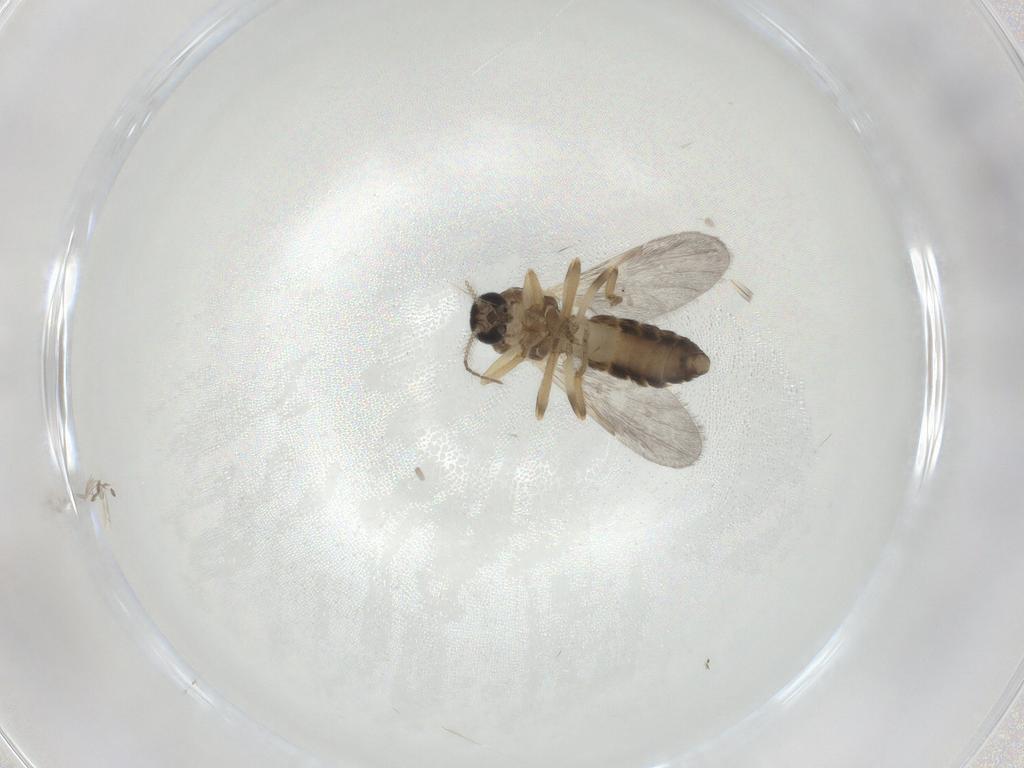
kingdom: Animalia
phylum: Arthropoda
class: Insecta
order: Diptera
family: Ceratopogonidae
